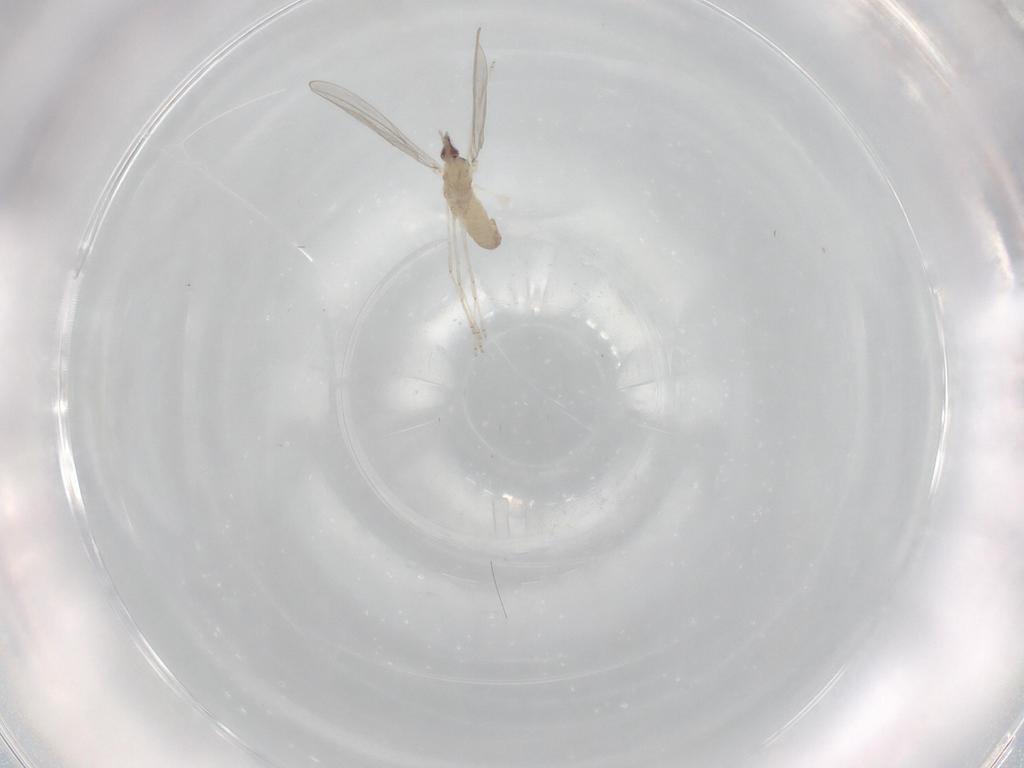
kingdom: Animalia
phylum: Arthropoda
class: Insecta
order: Diptera
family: Cecidomyiidae
